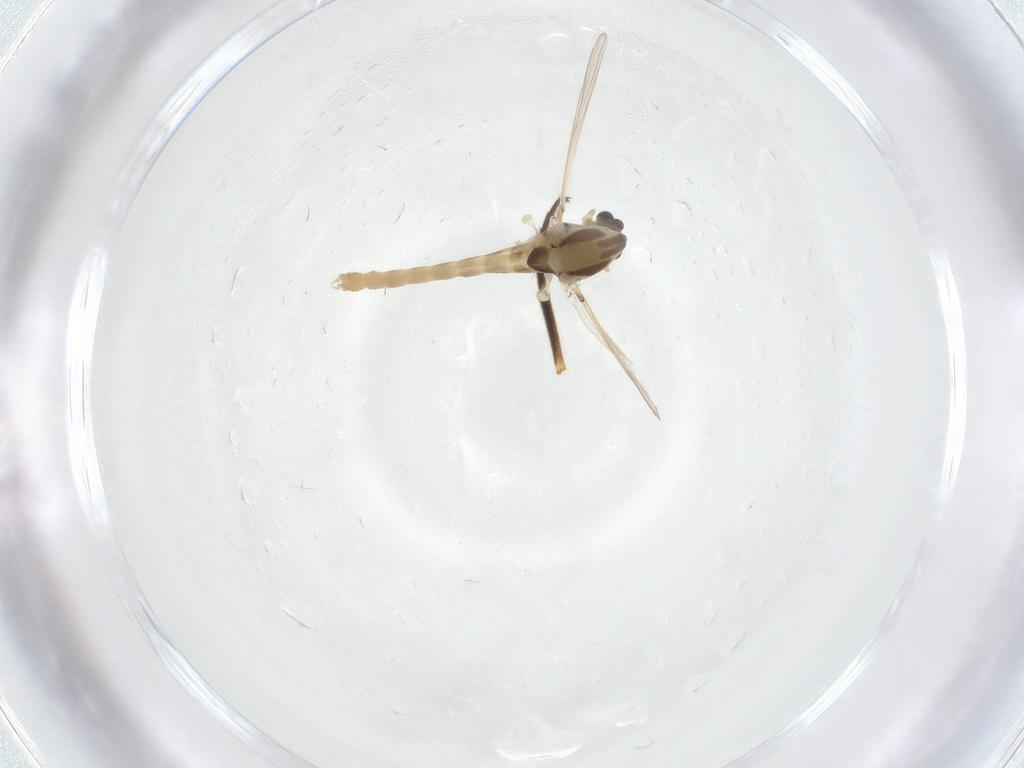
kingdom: Animalia
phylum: Arthropoda
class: Insecta
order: Diptera
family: Chironomidae
